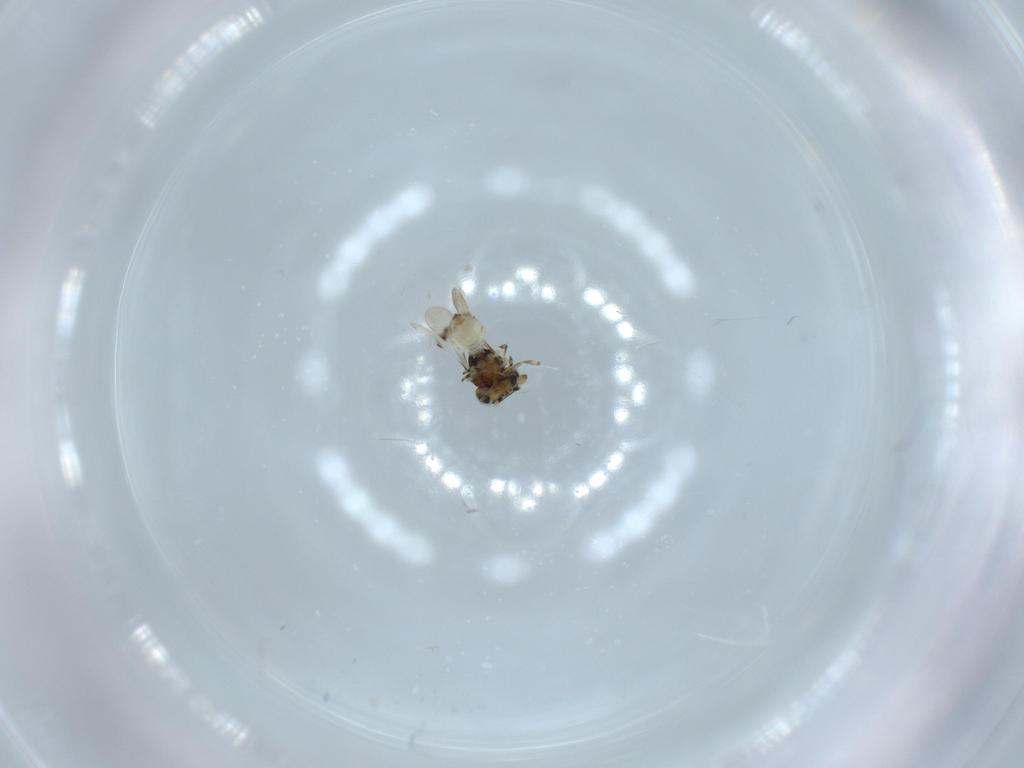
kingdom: Animalia
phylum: Arthropoda
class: Insecta
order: Hymenoptera
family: Scelionidae
